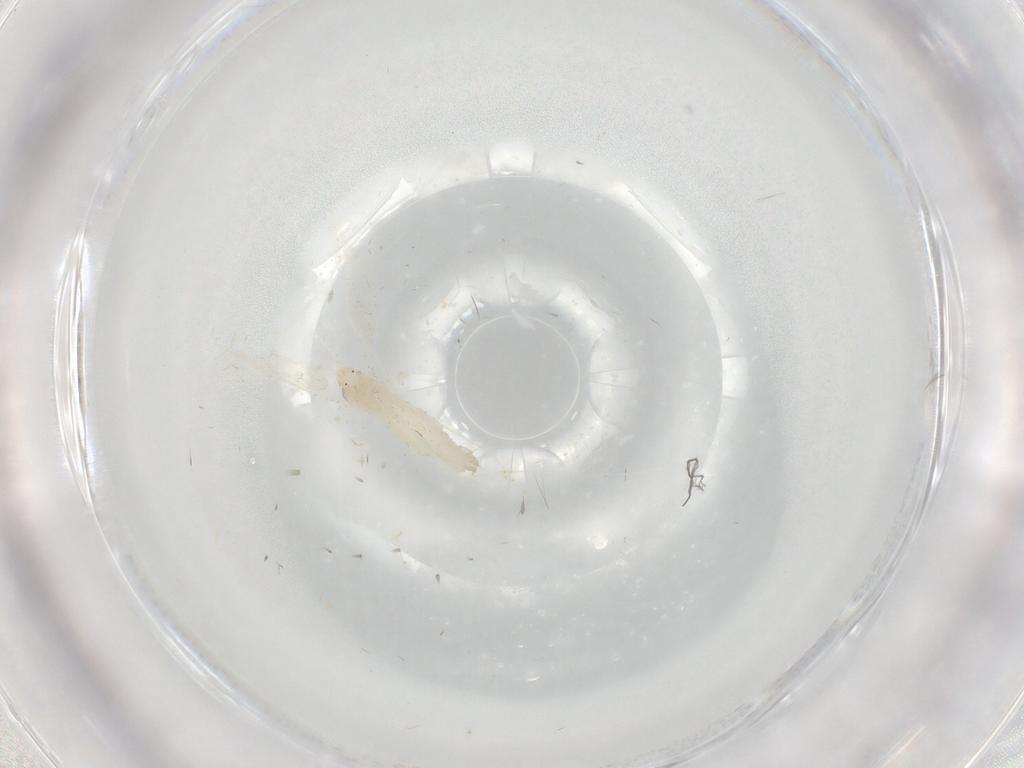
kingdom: Animalia
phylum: Arthropoda
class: Insecta
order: Diptera
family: Cecidomyiidae
